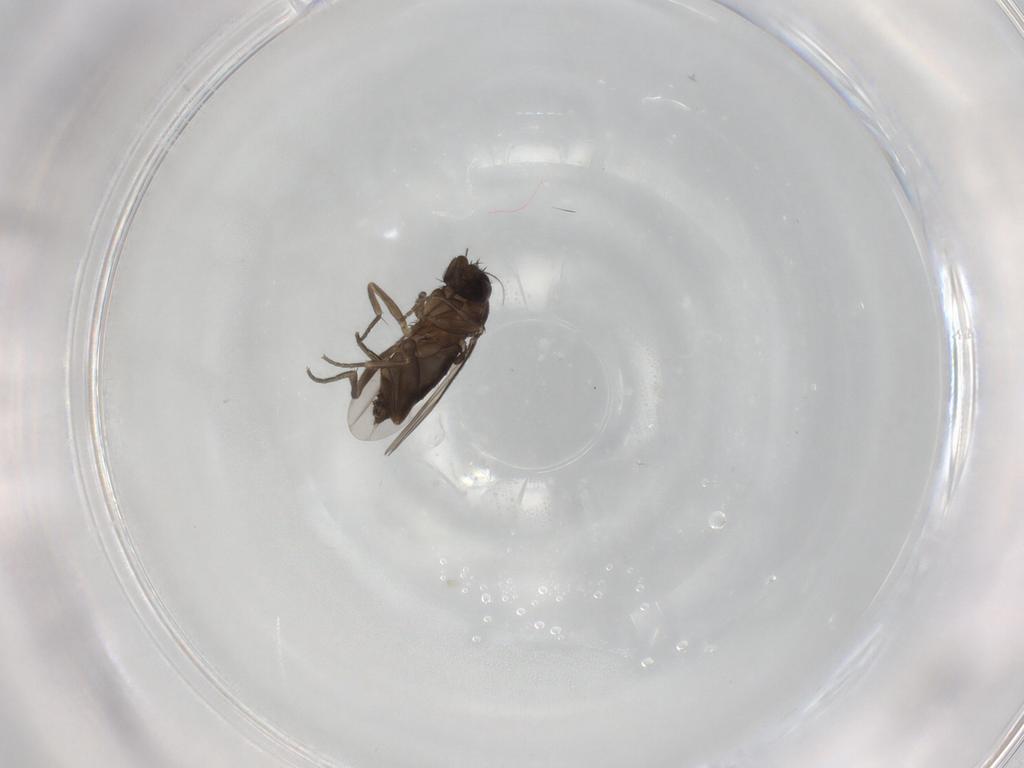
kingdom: Animalia
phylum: Arthropoda
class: Insecta
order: Diptera
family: Phoridae
